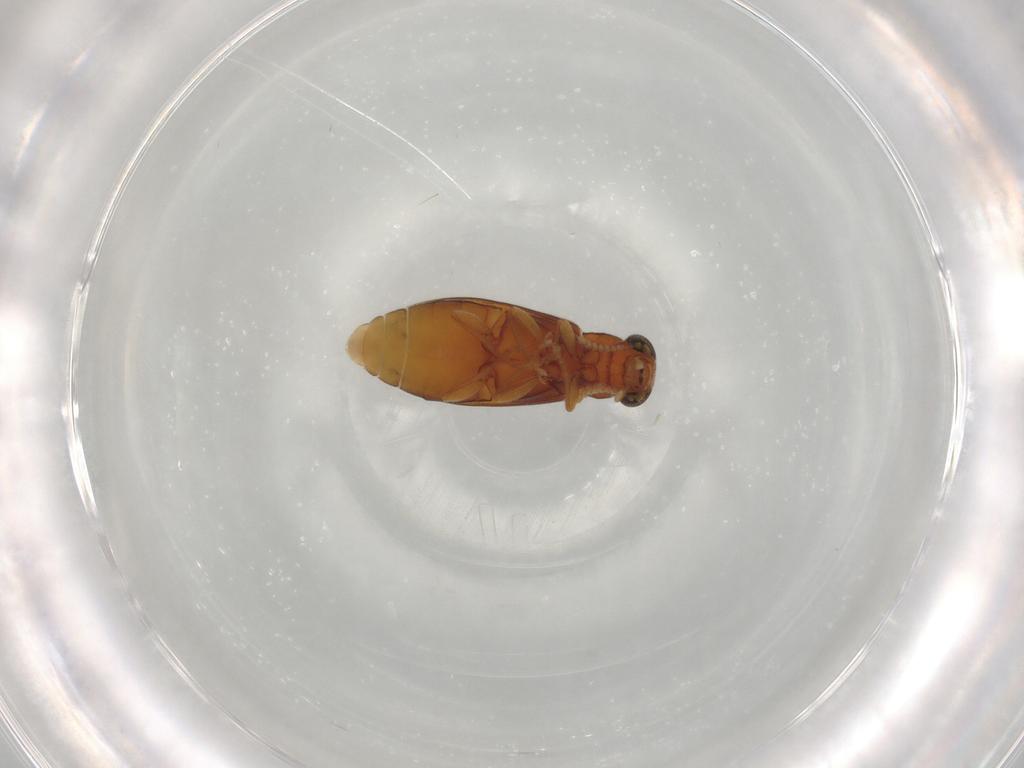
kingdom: Animalia
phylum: Arthropoda
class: Insecta
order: Coleoptera
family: Mycteridae
